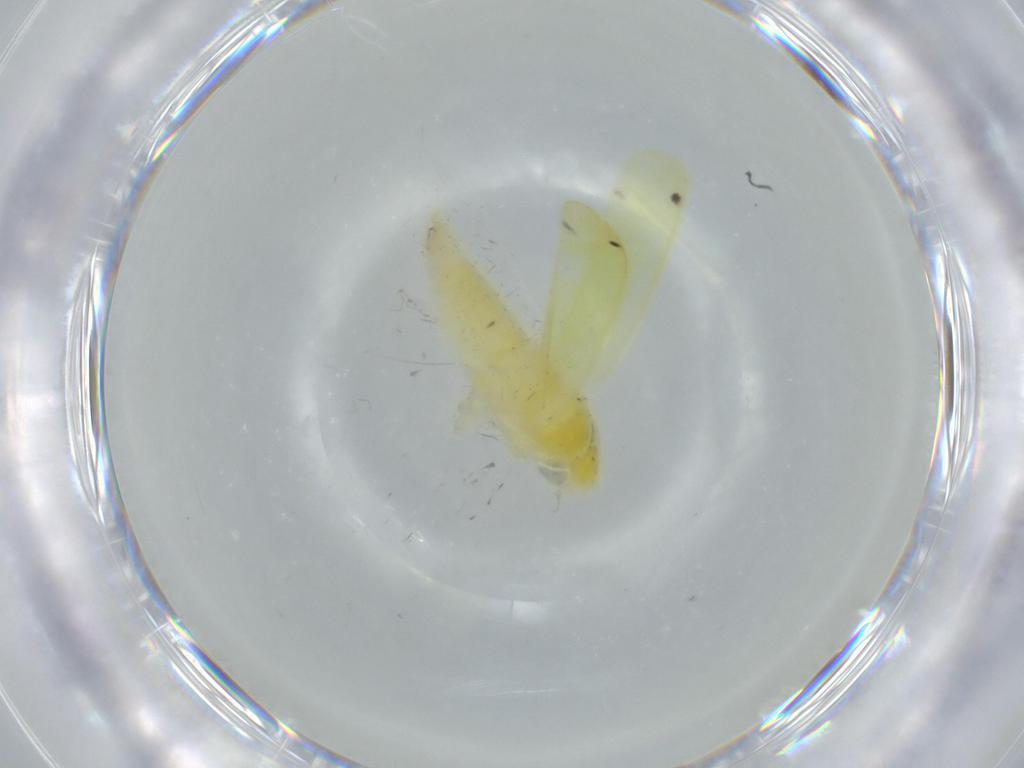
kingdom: Animalia
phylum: Arthropoda
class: Insecta
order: Hemiptera
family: Cicadellidae
